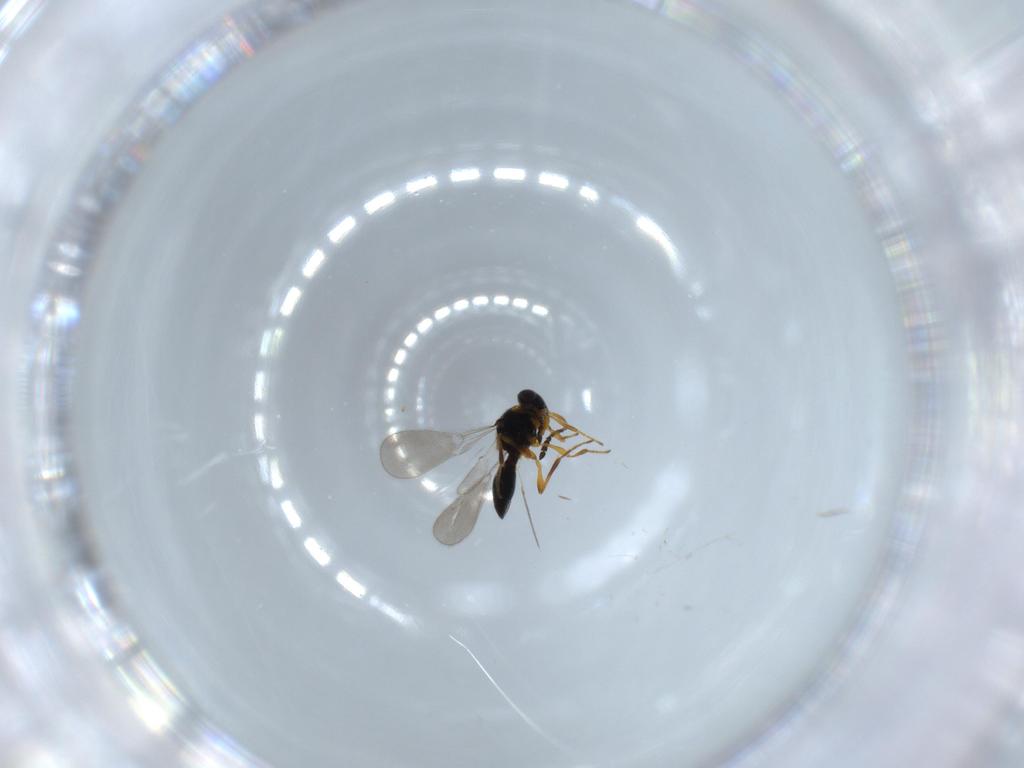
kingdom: Animalia
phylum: Arthropoda
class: Insecta
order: Hymenoptera
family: Platygastridae
